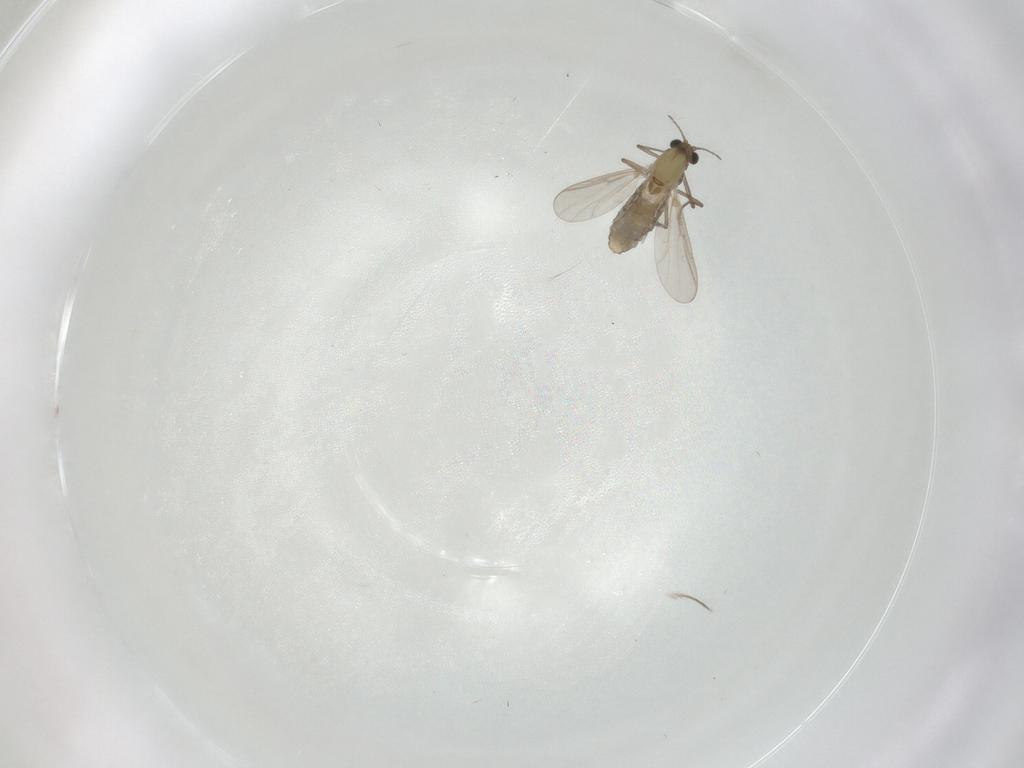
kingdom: Animalia
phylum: Arthropoda
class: Insecta
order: Diptera
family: Chironomidae
